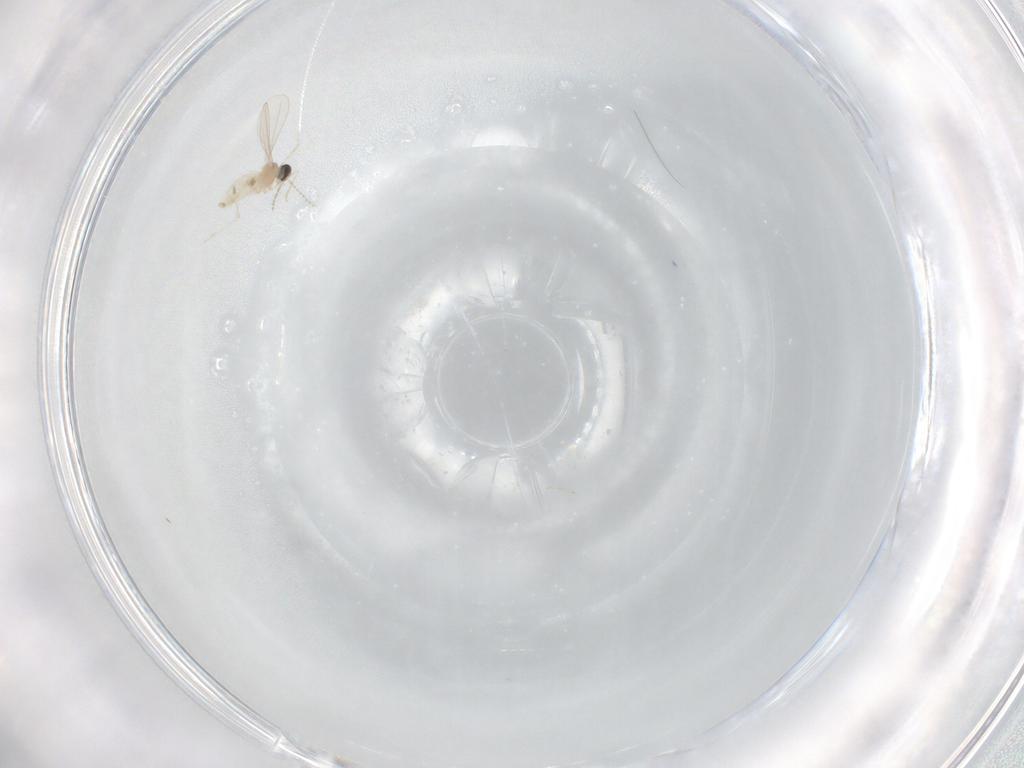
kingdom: Animalia
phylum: Arthropoda
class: Insecta
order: Diptera
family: Cecidomyiidae
